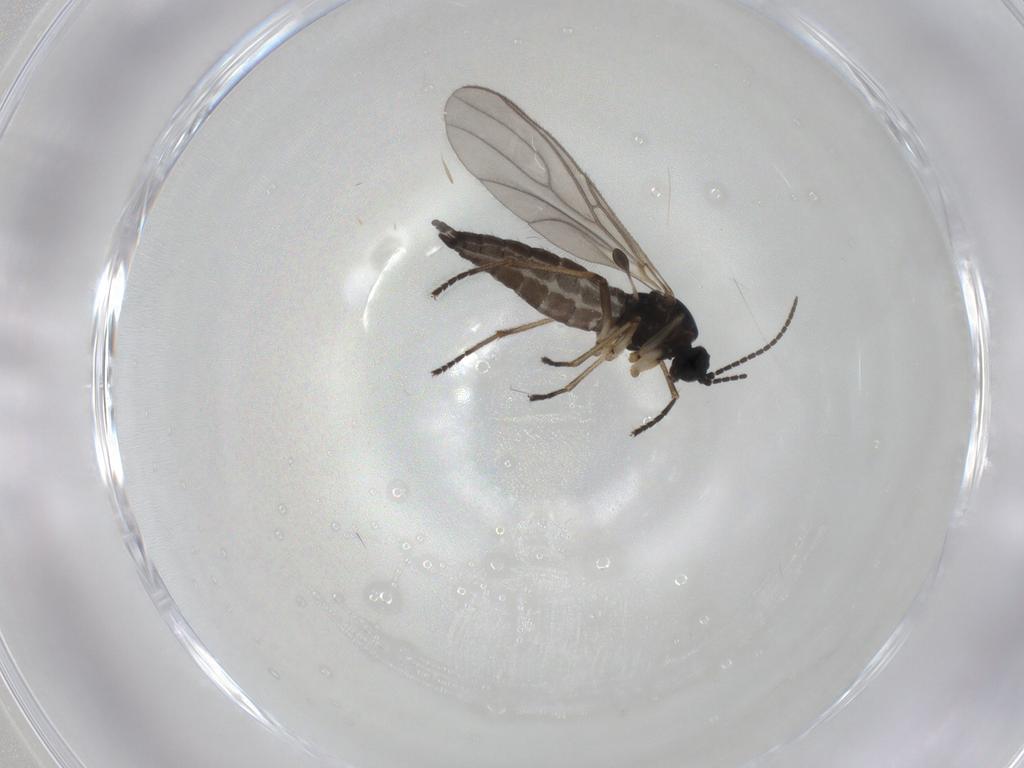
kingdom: Animalia
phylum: Arthropoda
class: Insecta
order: Diptera
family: Sciaridae
